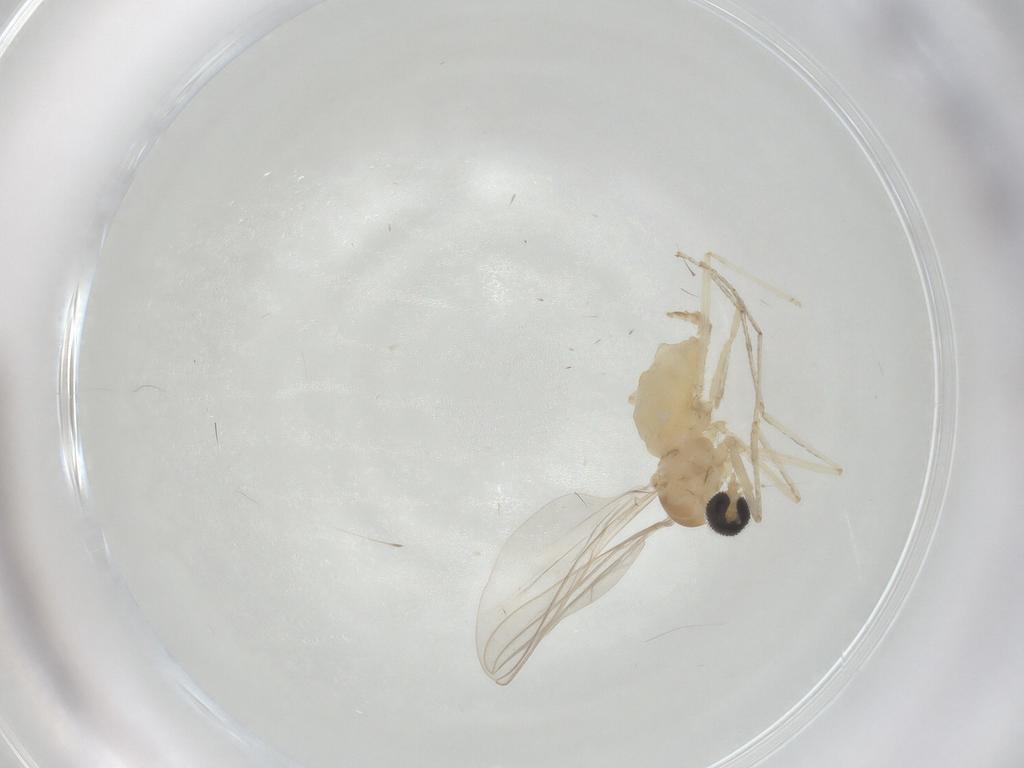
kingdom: Animalia
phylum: Arthropoda
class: Insecta
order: Diptera
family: Cecidomyiidae
